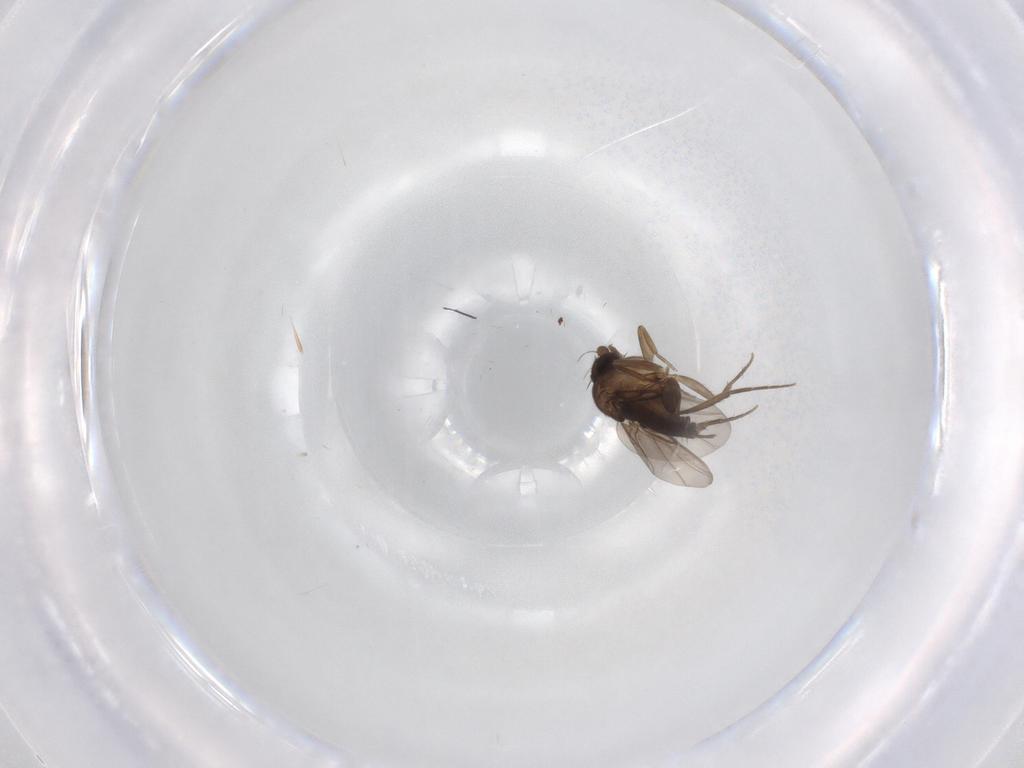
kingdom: Animalia
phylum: Arthropoda
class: Insecta
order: Diptera
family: Phoridae
